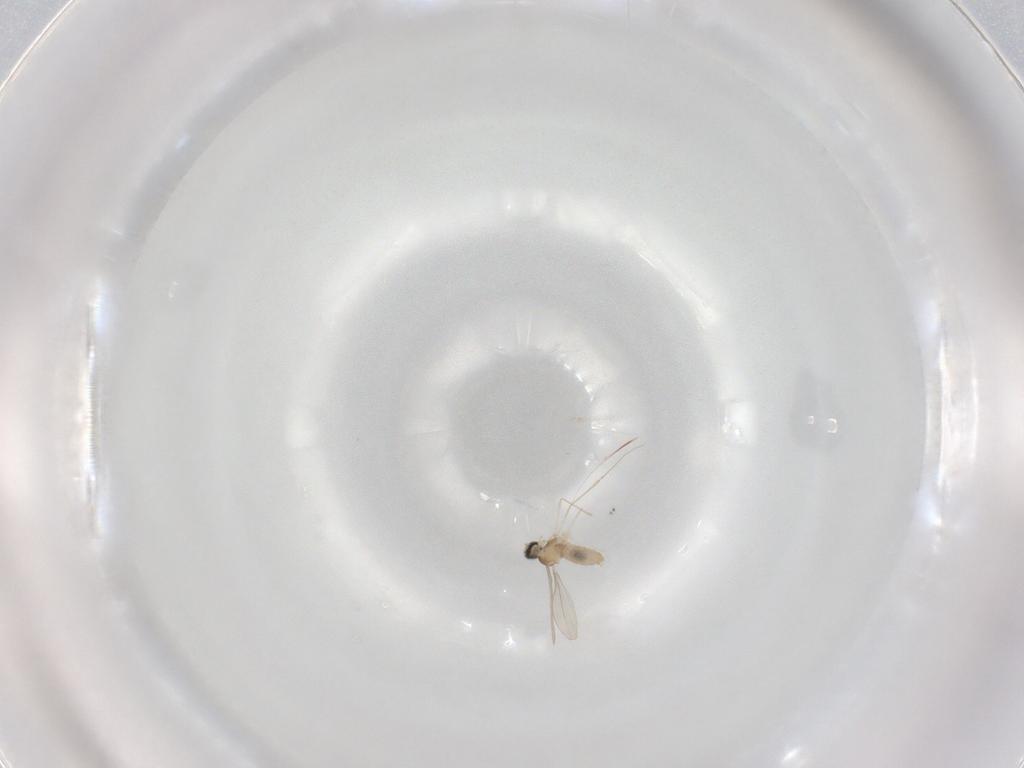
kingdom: Animalia
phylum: Arthropoda
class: Insecta
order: Diptera
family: Cecidomyiidae
